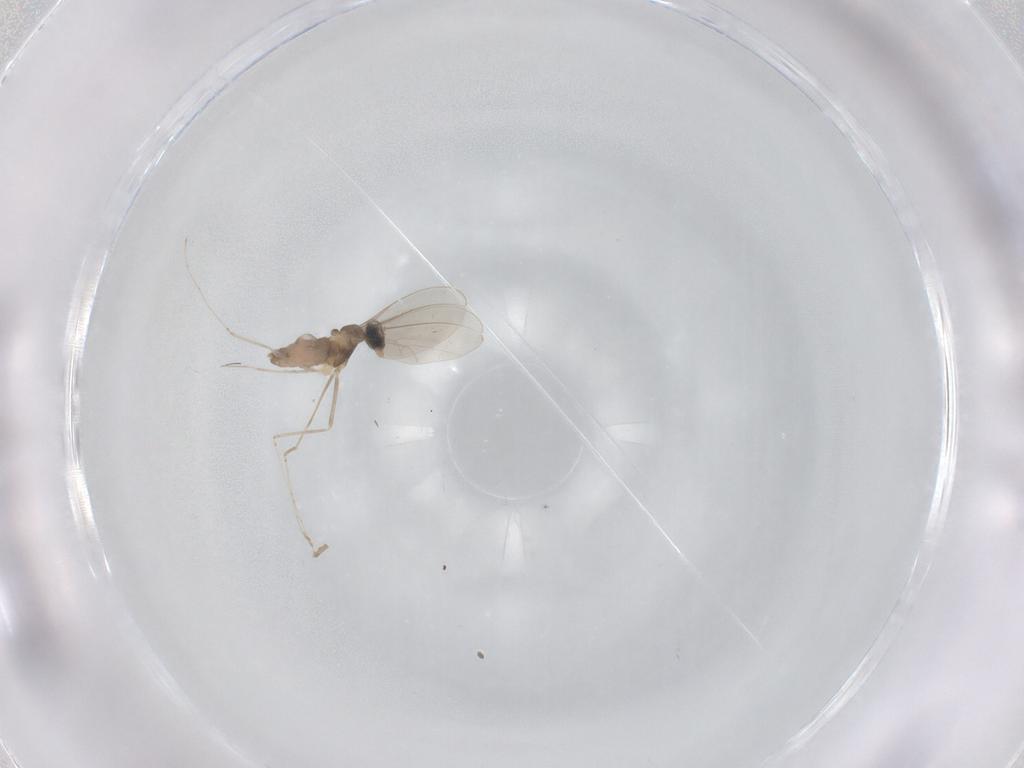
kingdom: Animalia
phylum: Arthropoda
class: Insecta
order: Diptera
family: Cecidomyiidae
